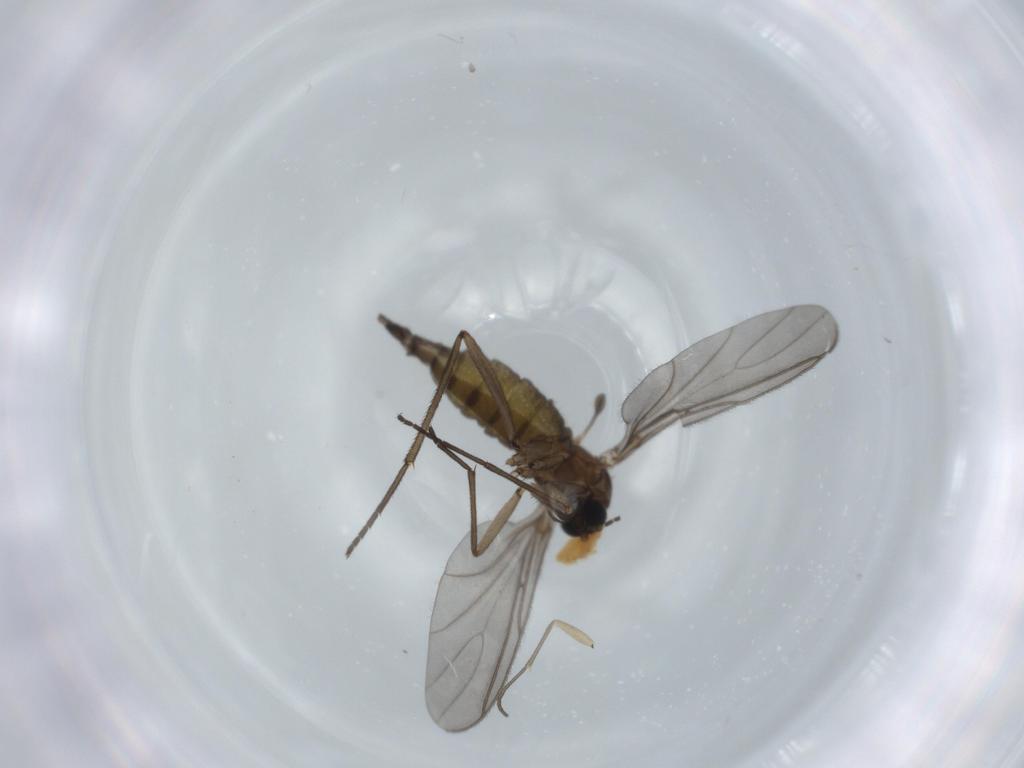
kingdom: Animalia
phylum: Arthropoda
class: Insecta
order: Diptera
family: Sciaridae
